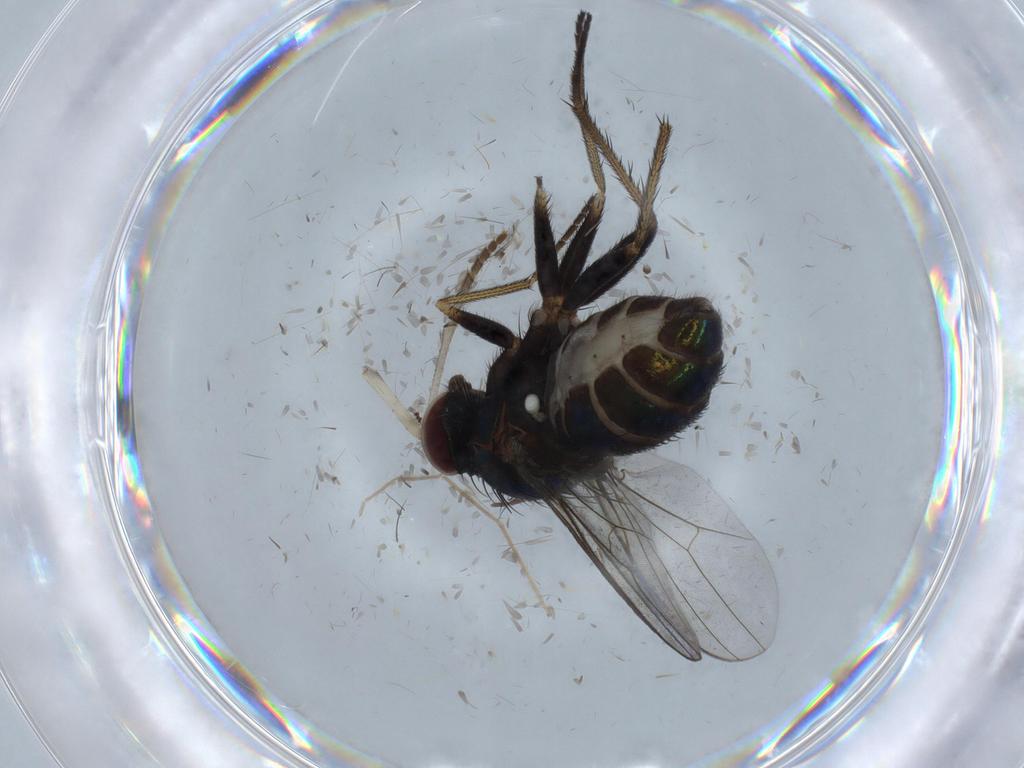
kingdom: Animalia
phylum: Arthropoda
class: Insecta
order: Diptera
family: Dolichopodidae
